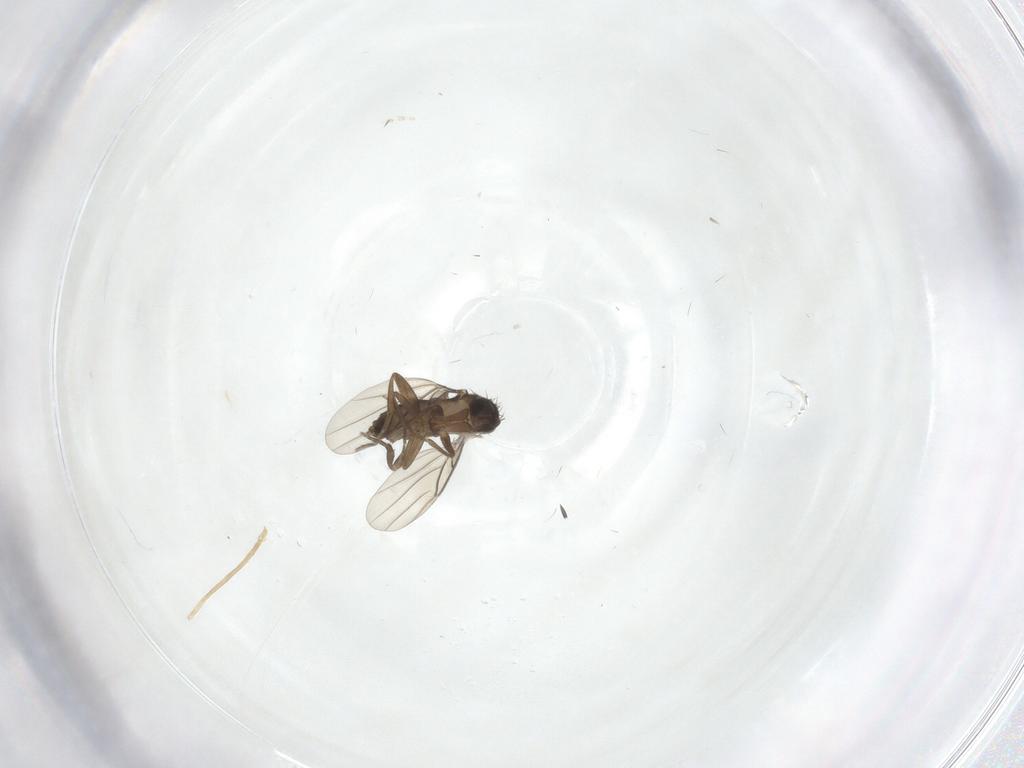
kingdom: Animalia
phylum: Arthropoda
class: Insecta
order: Diptera
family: Phoridae
